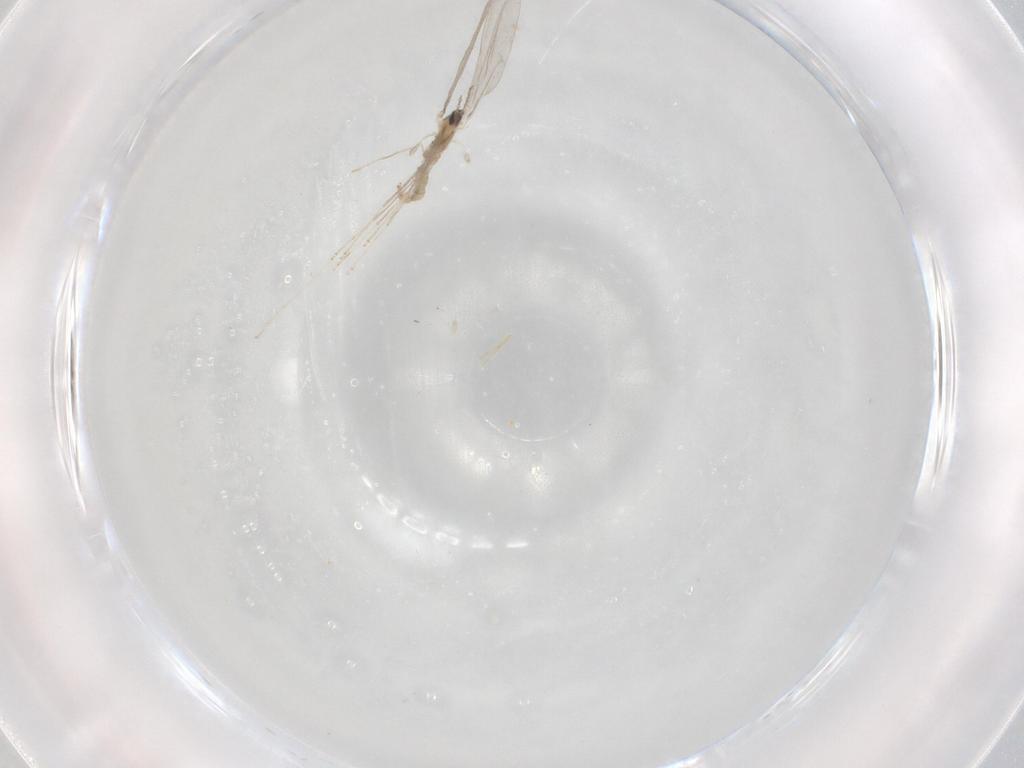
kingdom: Animalia
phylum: Arthropoda
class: Insecta
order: Diptera
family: Cecidomyiidae
